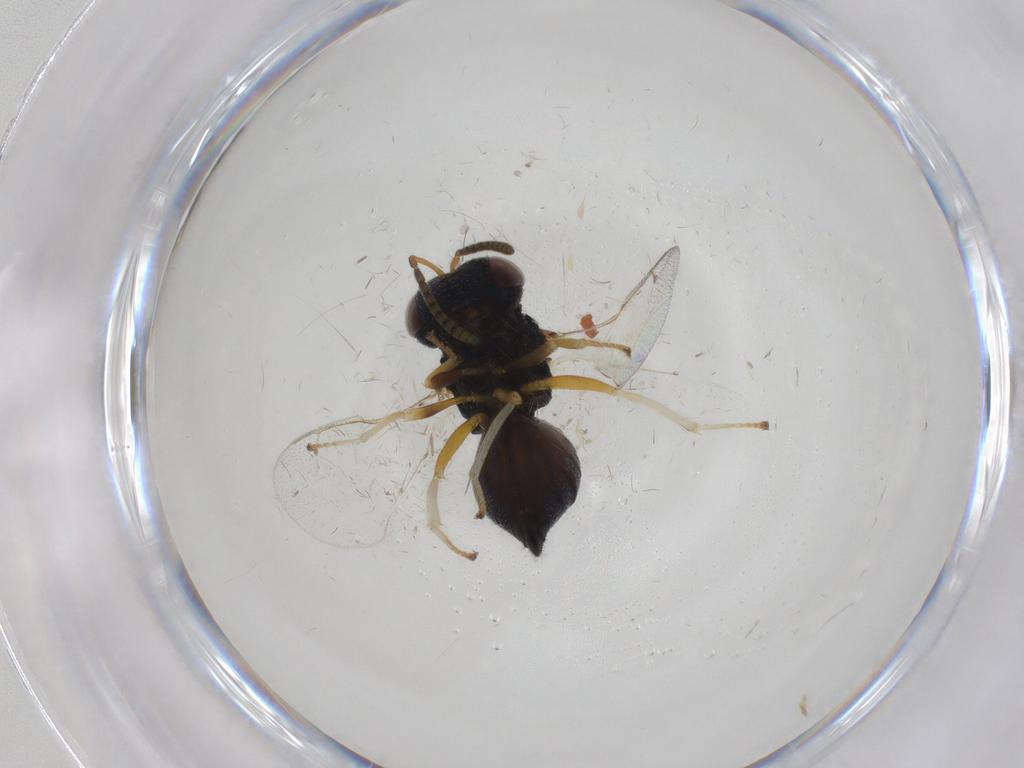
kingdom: Animalia
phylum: Arthropoda
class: Insecta
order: Hymenoptera
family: Pteromalidae
